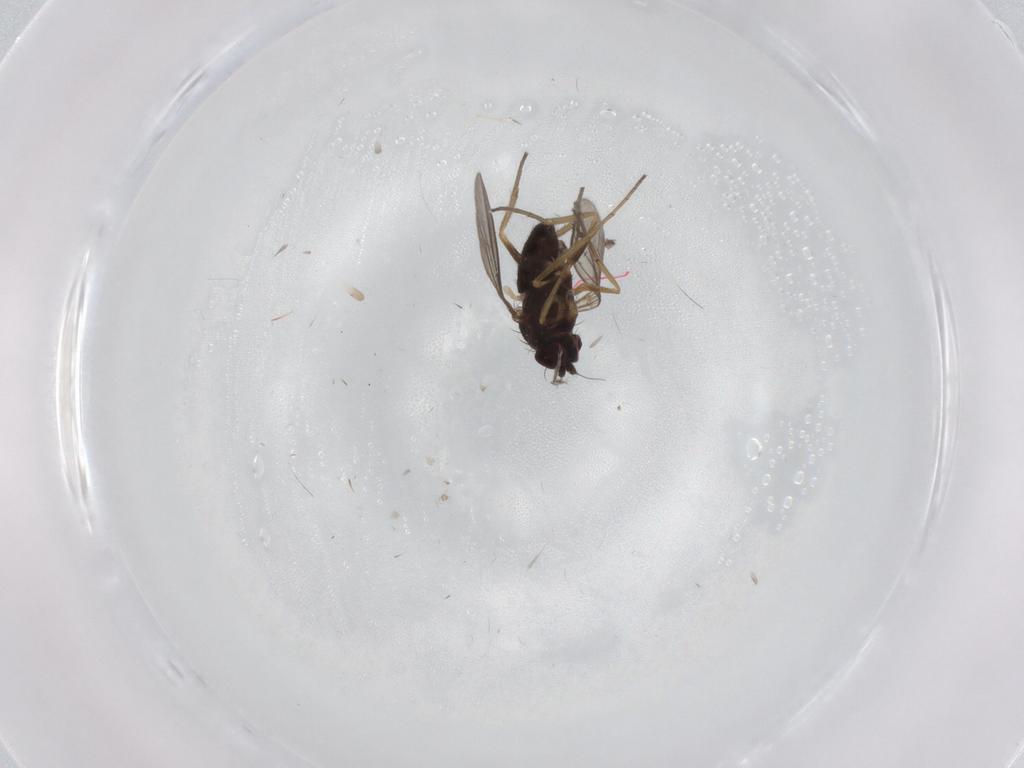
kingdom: Animalia
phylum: Arthropoda
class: Insecta
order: Diptera
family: Dolichopodidae
